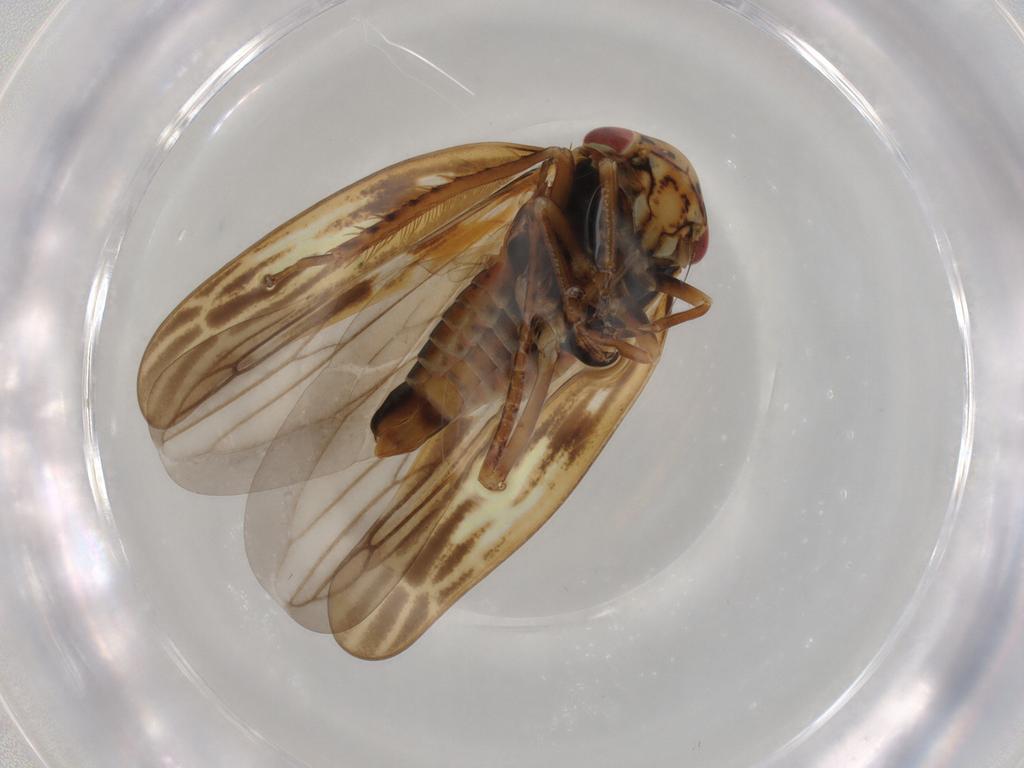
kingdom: Animalia
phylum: Arthropoda
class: Insecta
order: Hemiptera
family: Cicadellidae
